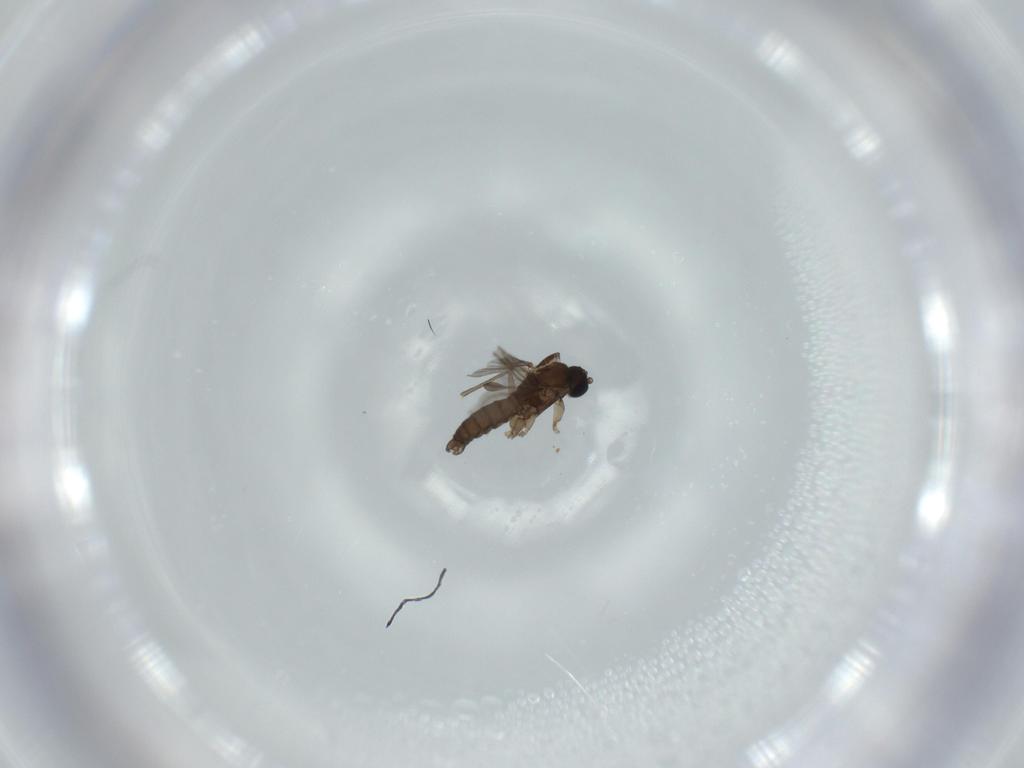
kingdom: Animalia
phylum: Arthropoda
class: Insecta
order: Diptera
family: Cecidomyiidae
